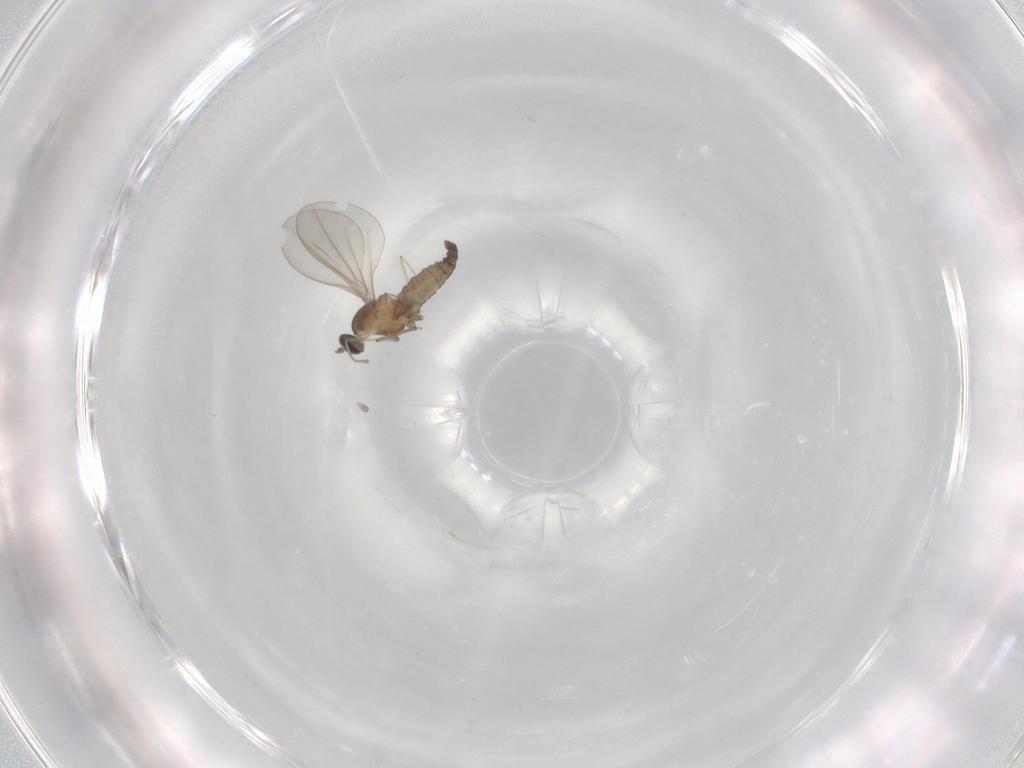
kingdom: Animalia
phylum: Arthropoda
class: Insecta
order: Diptera
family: Cecidomyiidae
